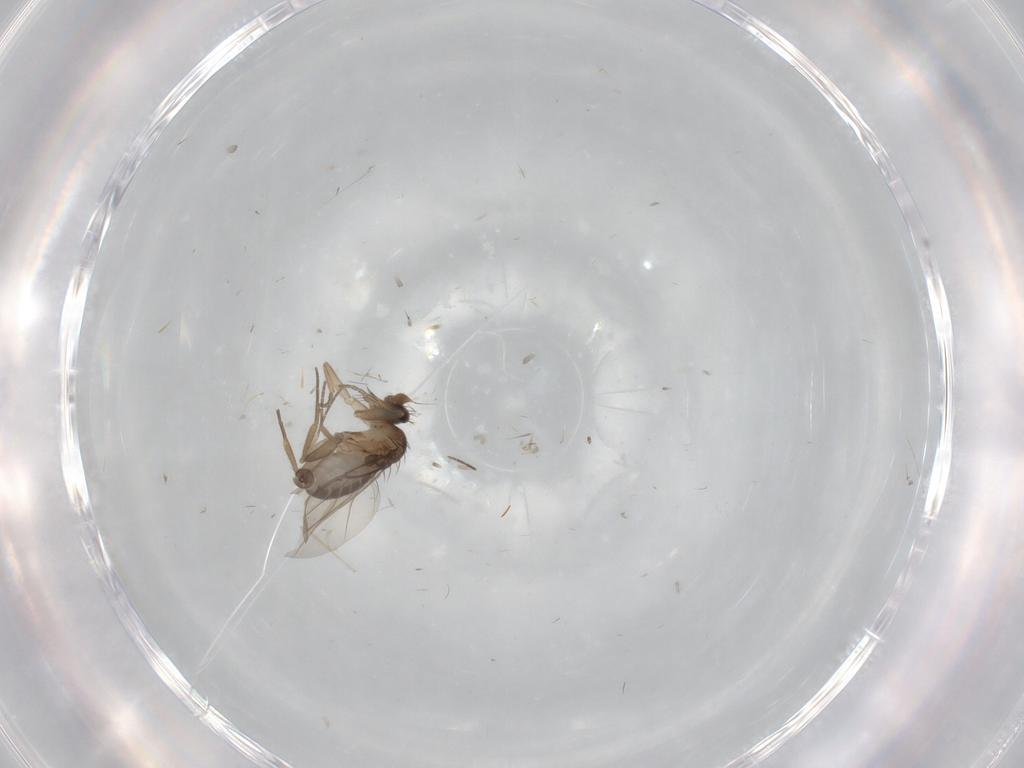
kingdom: Animalia
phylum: Arthropoda
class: Insecta
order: Diptera
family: Phoridae
